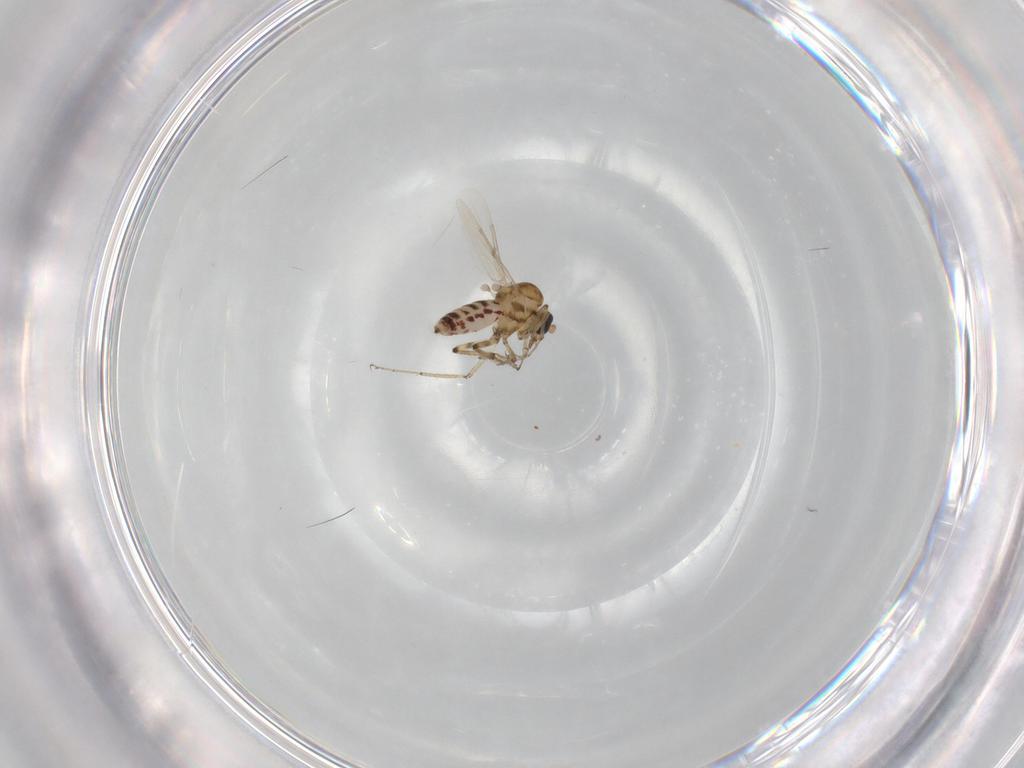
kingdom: Animalia
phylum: Arthropoda
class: Insecta
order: Diptera
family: Ceratopogonidae
